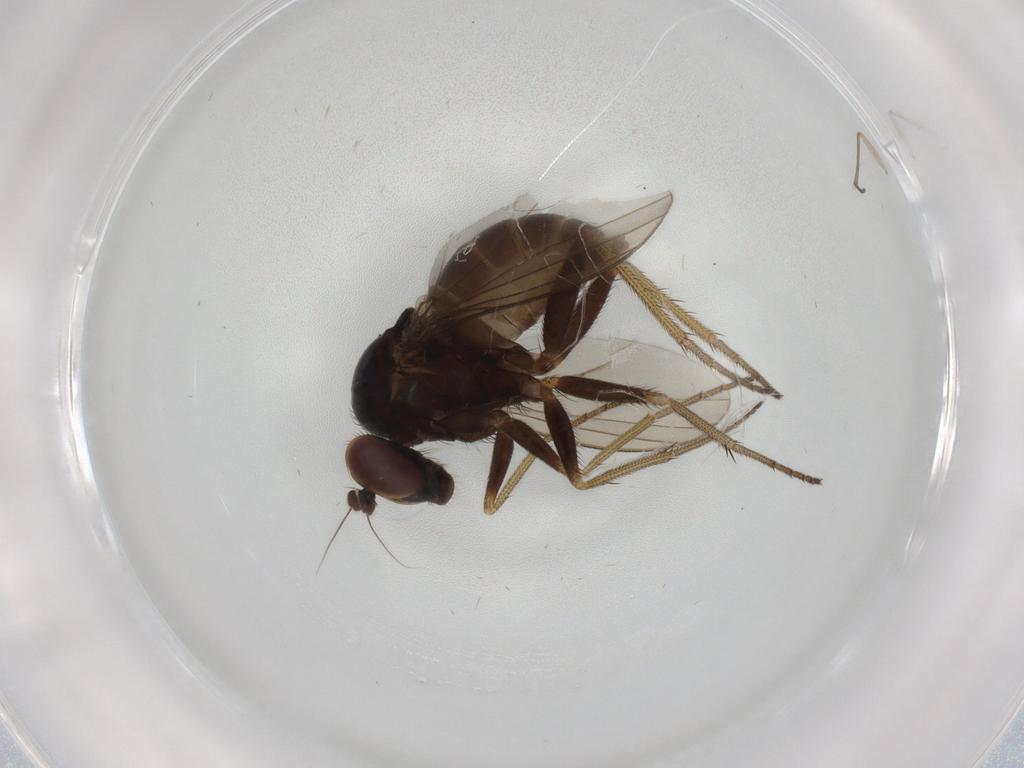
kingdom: Animalia
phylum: Arthropoda
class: Insecta
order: Diptera
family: Dolichopodidae
